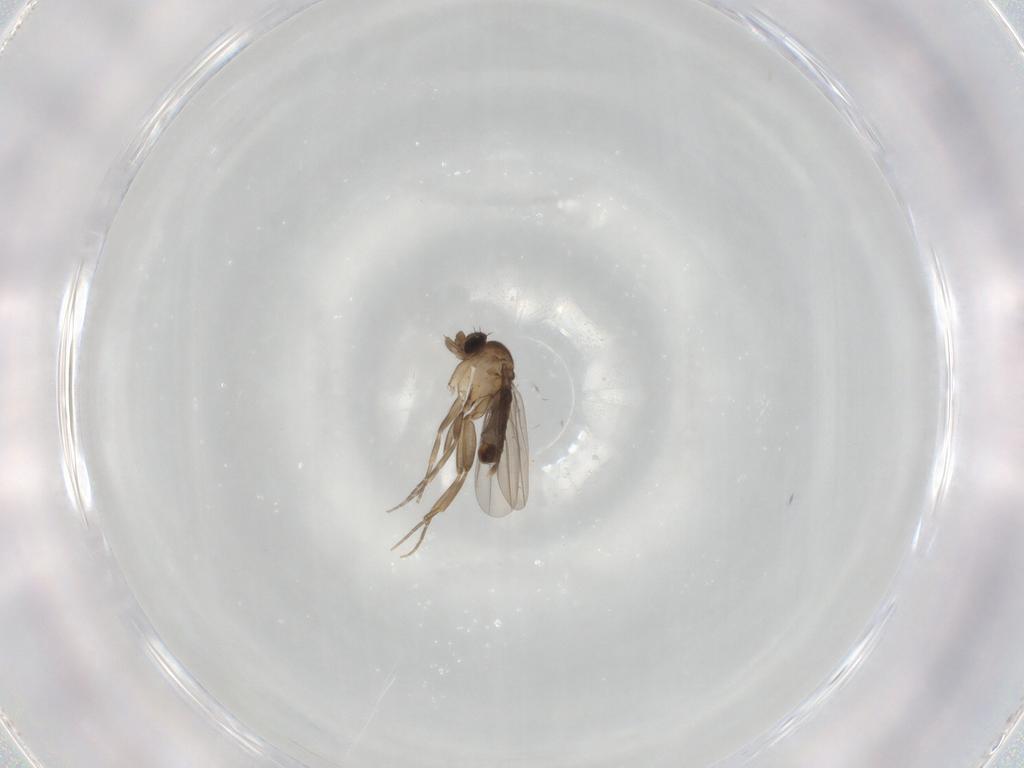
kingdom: Animalia
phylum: Arthropoda
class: Insecta
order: Diptera
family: Phoridae
